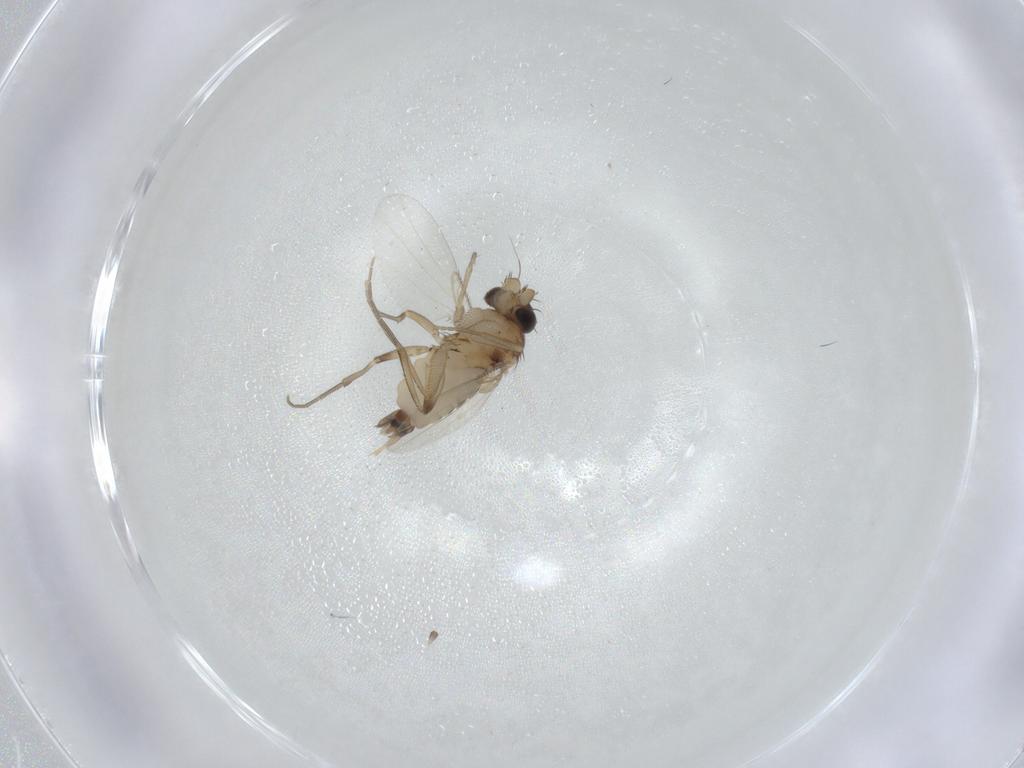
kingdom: Animalia
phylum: Arthropoda
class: Insecta
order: Diptera
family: Phoridae
